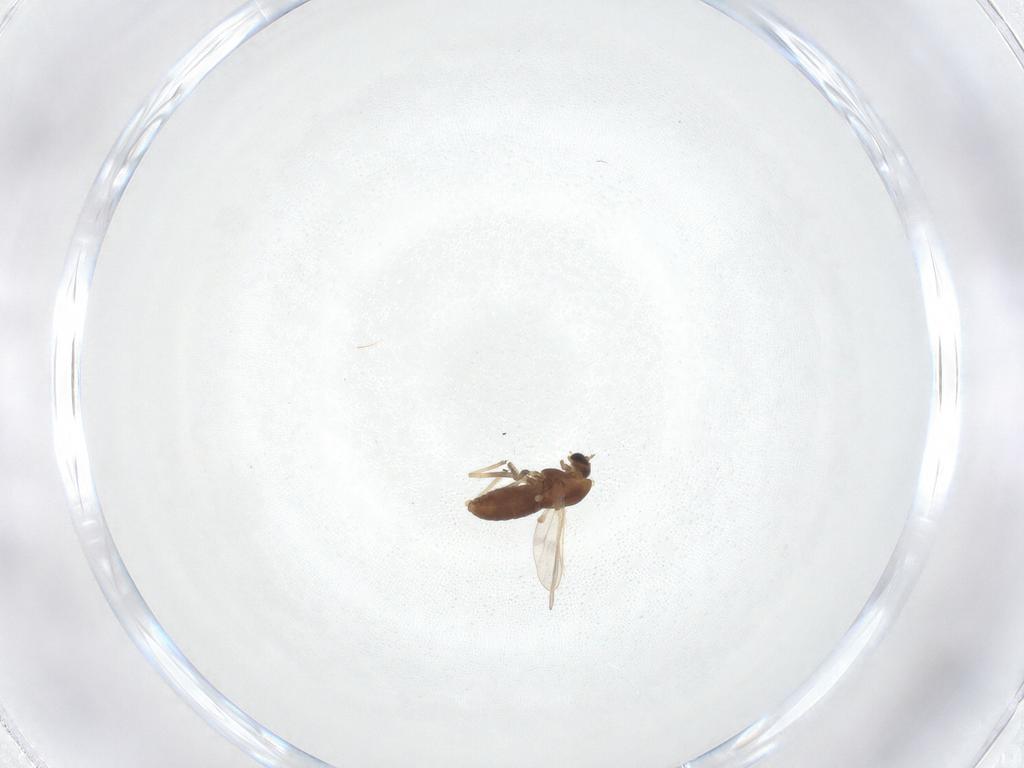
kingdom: Animalia
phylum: Arthropoda
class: Insecta
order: Diptera
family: Chironomidae
